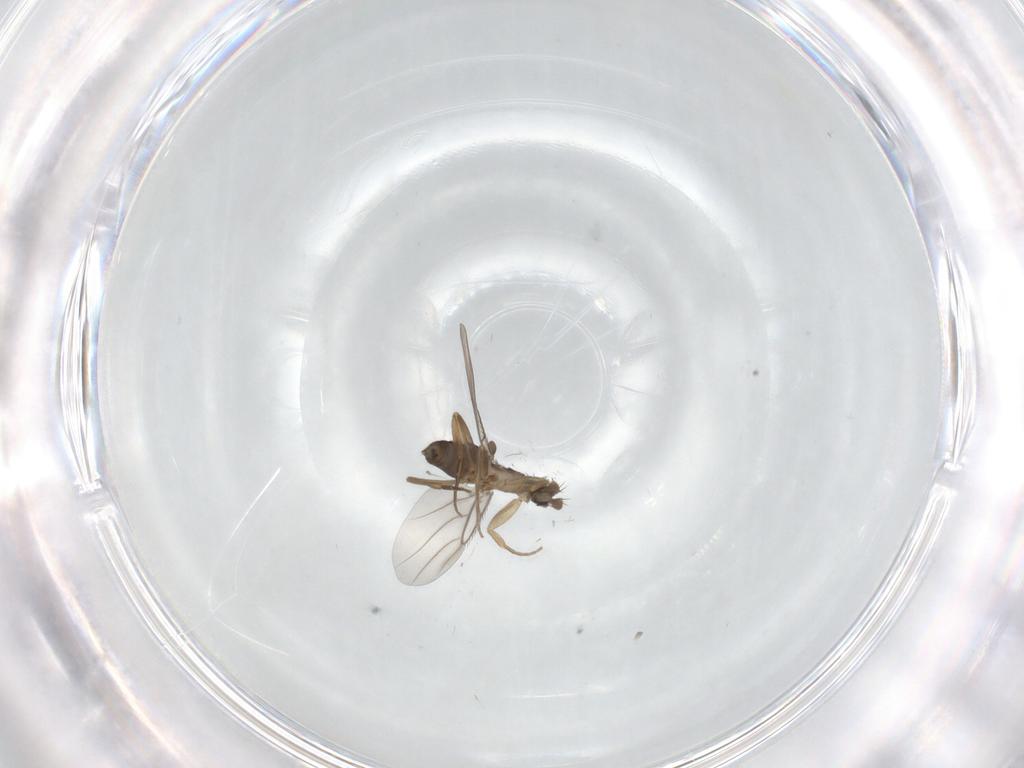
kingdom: Animalia
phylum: Arthropoda
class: Insecta
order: Diptera
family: Phoridae
